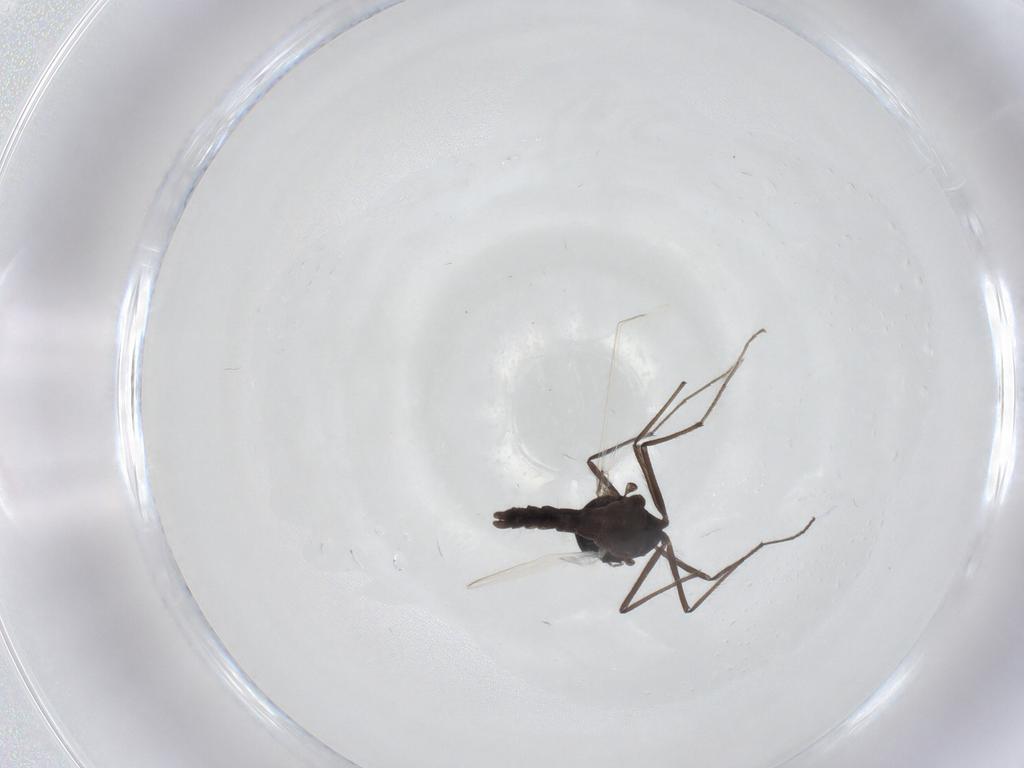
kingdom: Animalia
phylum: Arthropoda
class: Insecta
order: Diptera
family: Chironomidae
